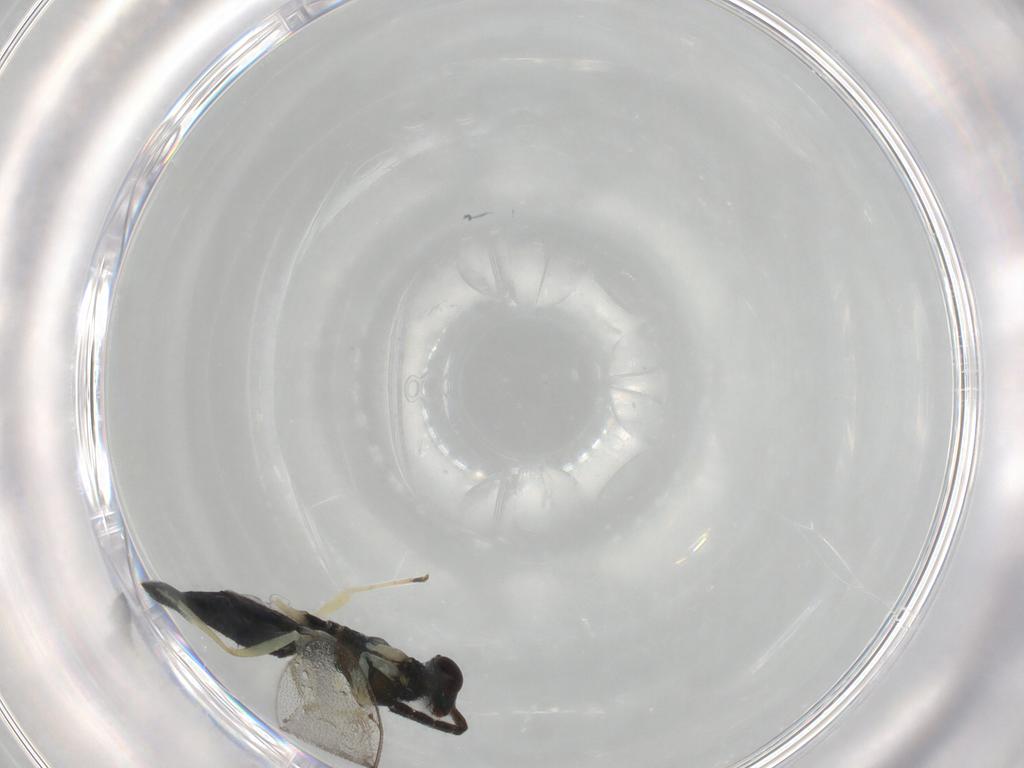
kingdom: Animalia
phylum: Arthropoda
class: Insecta
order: Hymenoptera
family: Eulophidae
